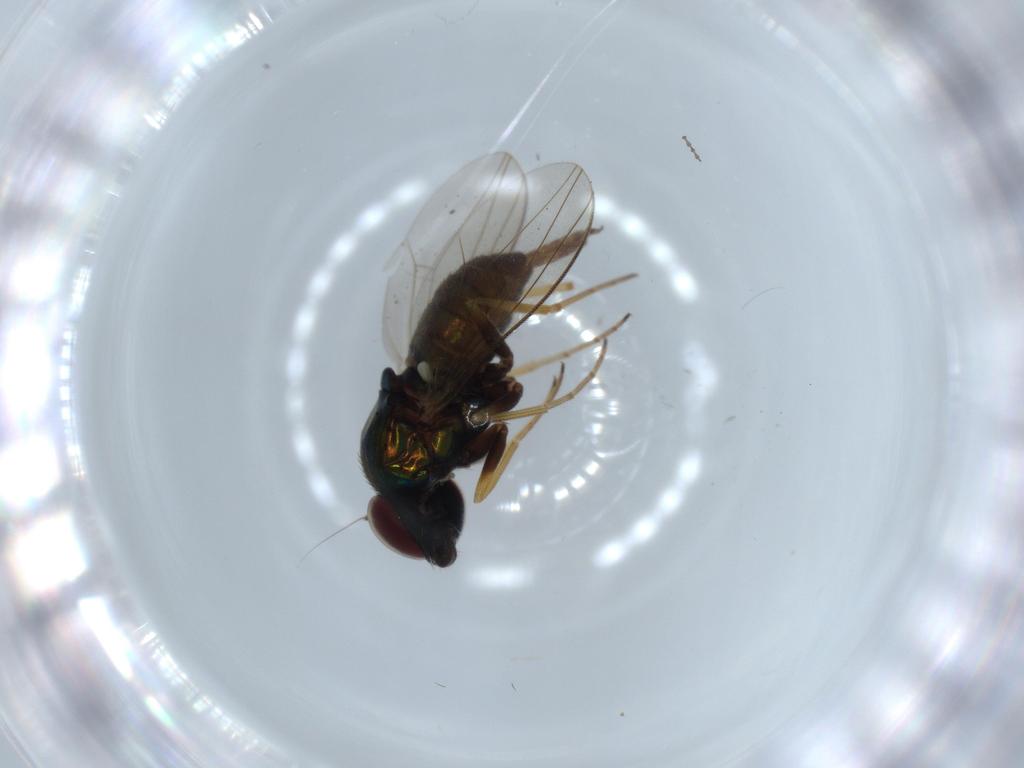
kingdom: Animalia
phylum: Arthropoda
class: Insecta
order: Diptera
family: Dolichopodidae
